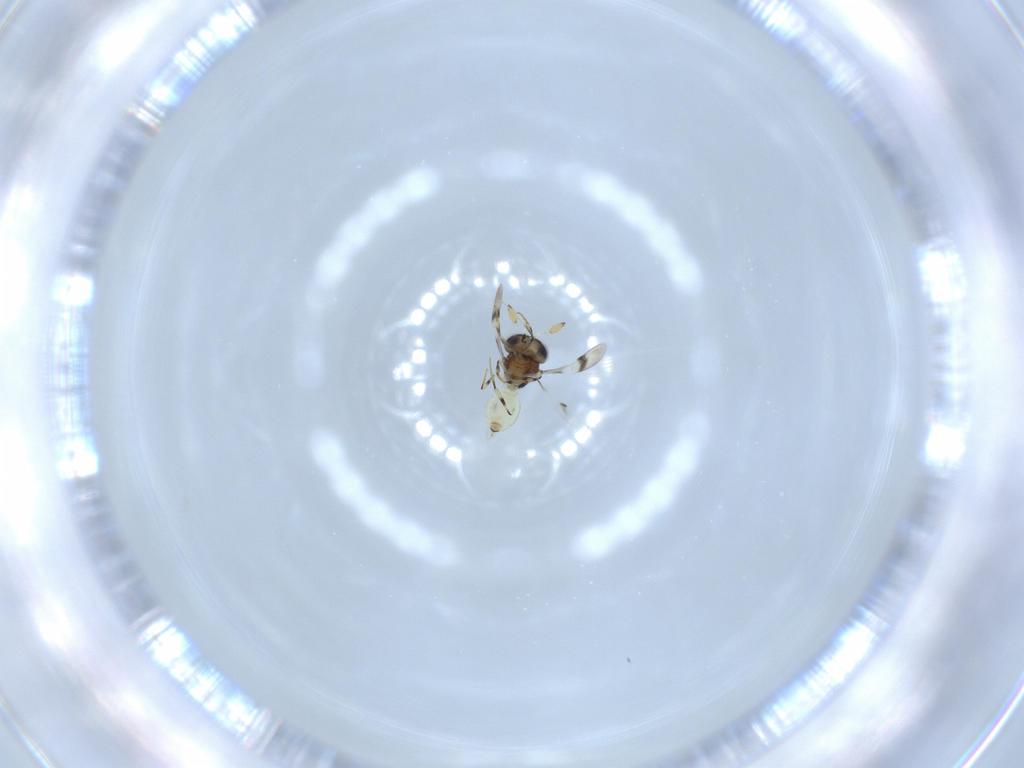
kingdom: Animalia
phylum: Arthropoda
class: Insecta
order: Hymenoptera
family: Scelionidae
